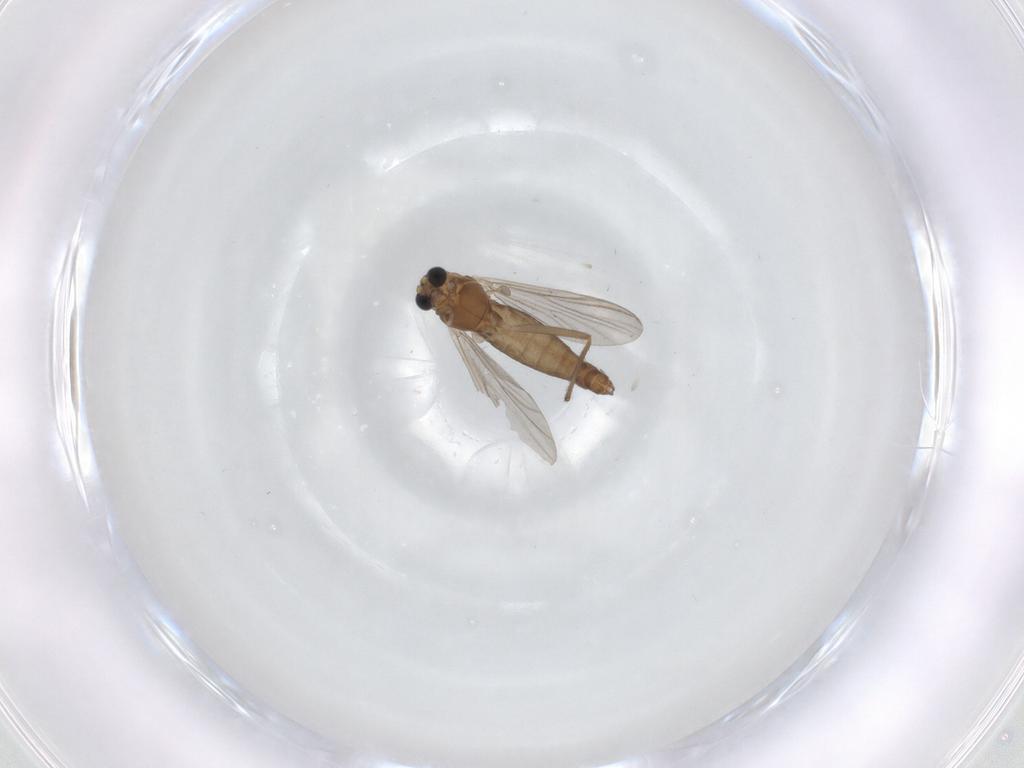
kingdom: Animalia
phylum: Arthropoda
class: Insecta
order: Diptera
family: Chironomidae
